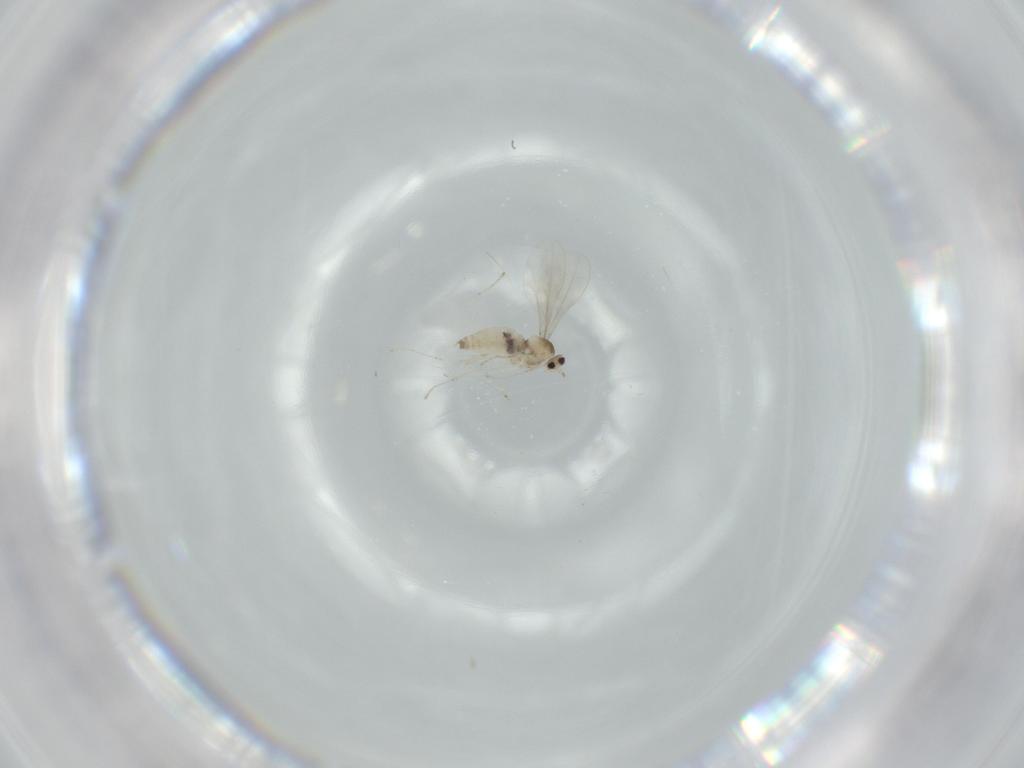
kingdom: Animalia
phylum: Arthropoda
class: Insecta
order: Diptera
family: Cecidomyiidae
